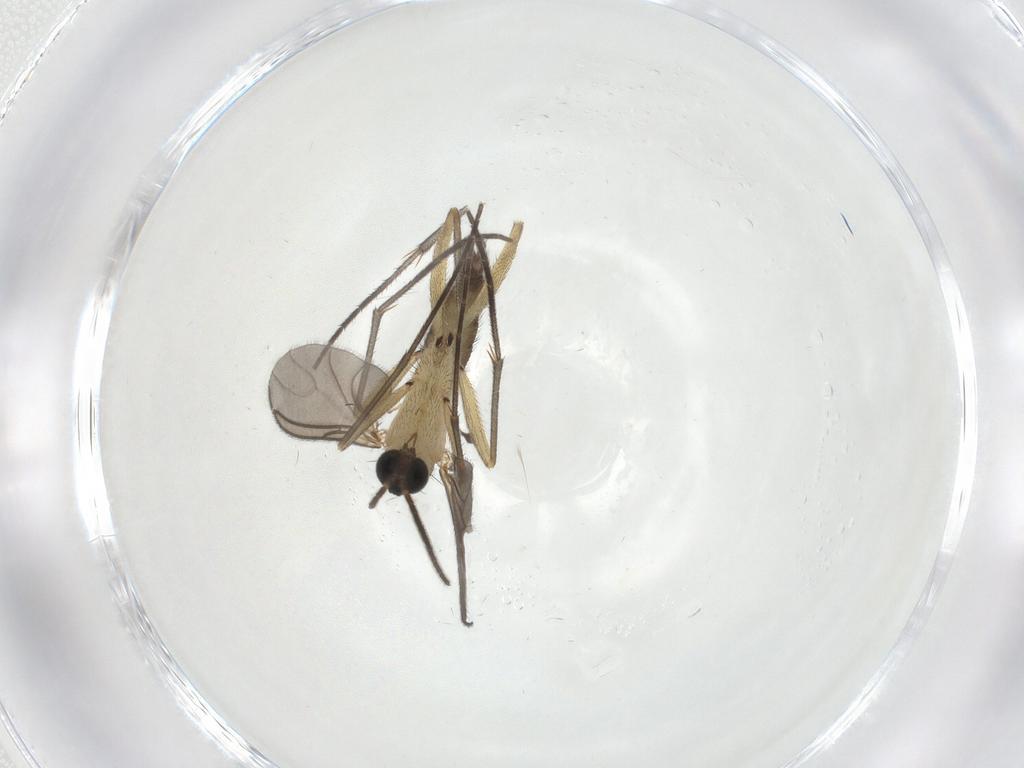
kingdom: Animalia
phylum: Arthropoda
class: Insecta
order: Diptera
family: Sciaridae
